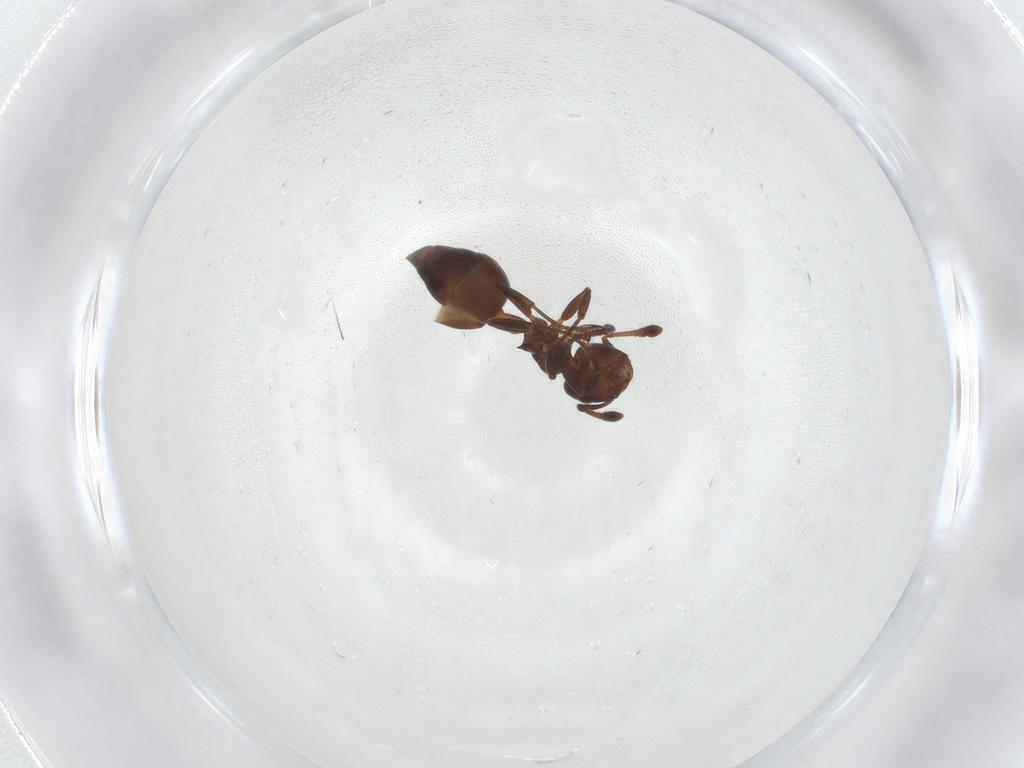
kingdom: Animalia
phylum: Arthropoda
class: Insecta
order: Hymenoptera
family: Formicidae
